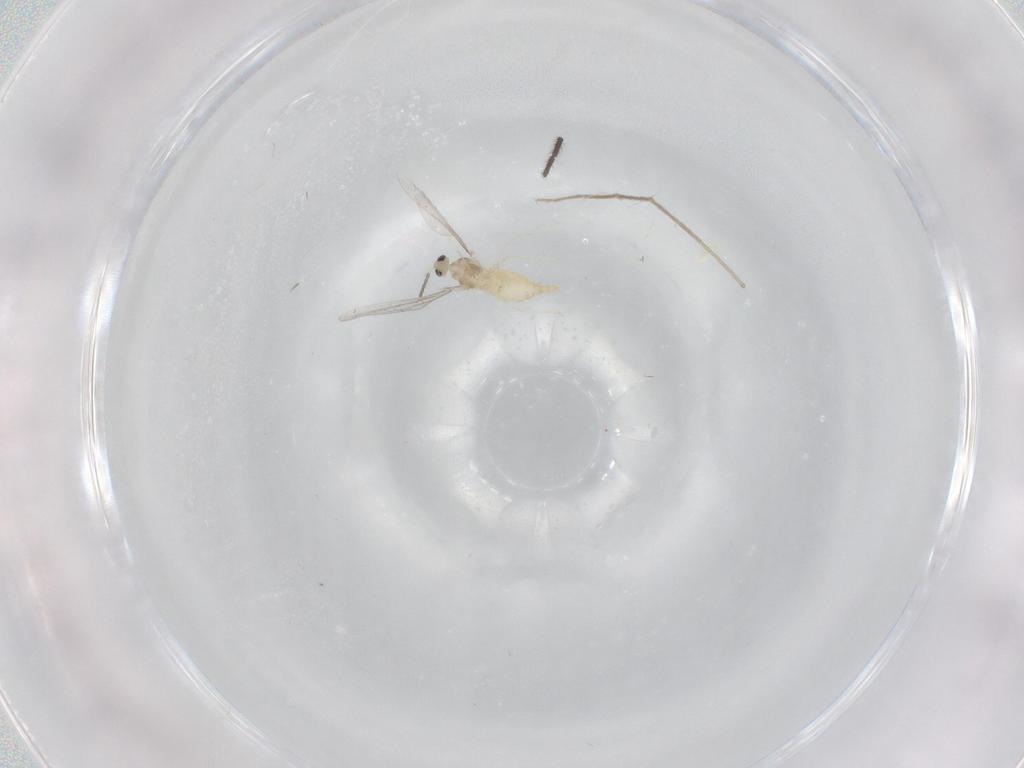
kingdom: Animalia
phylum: Arthropoda
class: Insecta
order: Diptera
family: Cecidomyiidae
